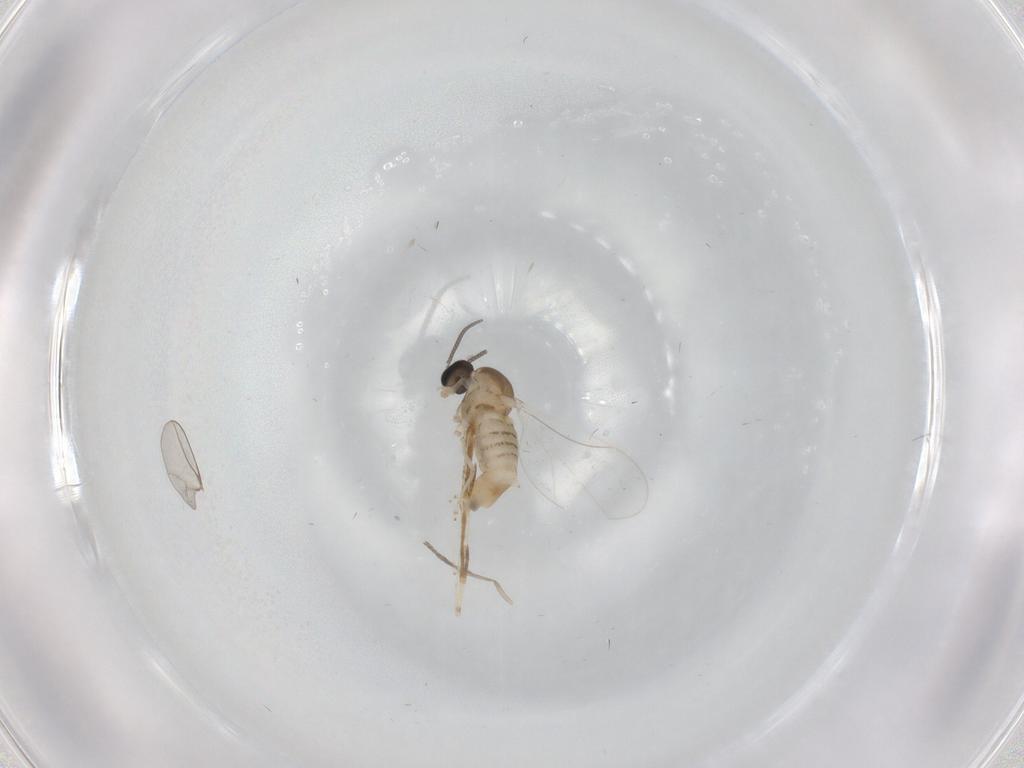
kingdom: Animalia
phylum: Arthropoda
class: Insecta
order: Diptera
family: Cecidomyiidae
